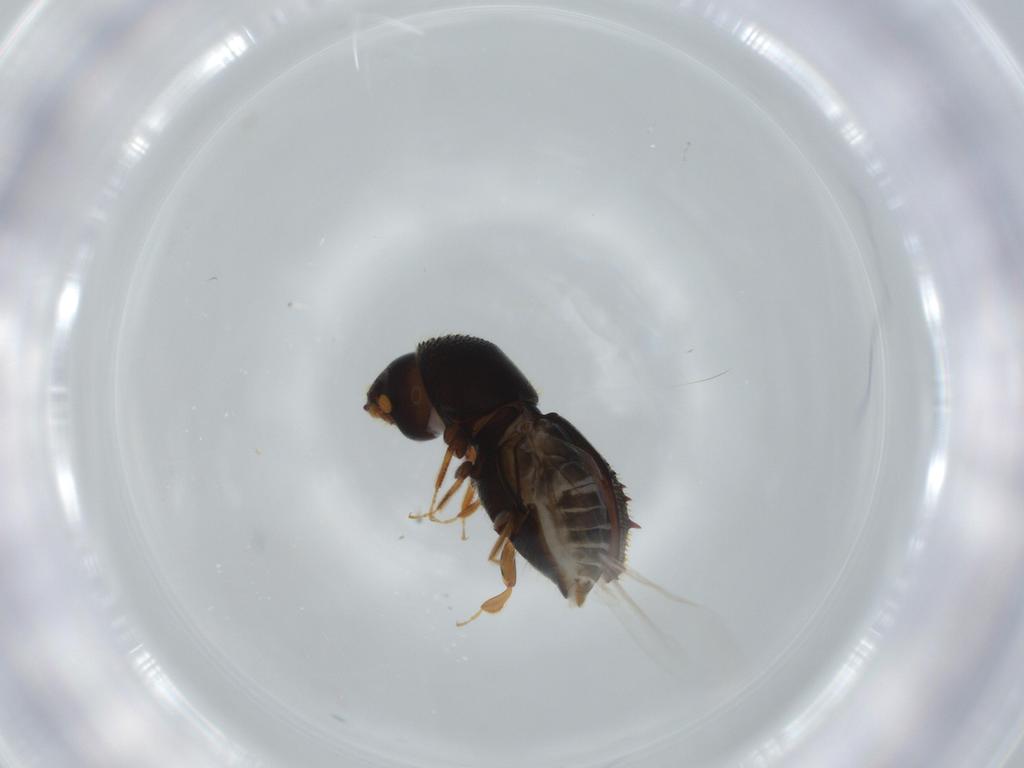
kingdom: Animalia
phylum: Arthropoda
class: Insecta
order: Coleoptera
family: Curculionidae
